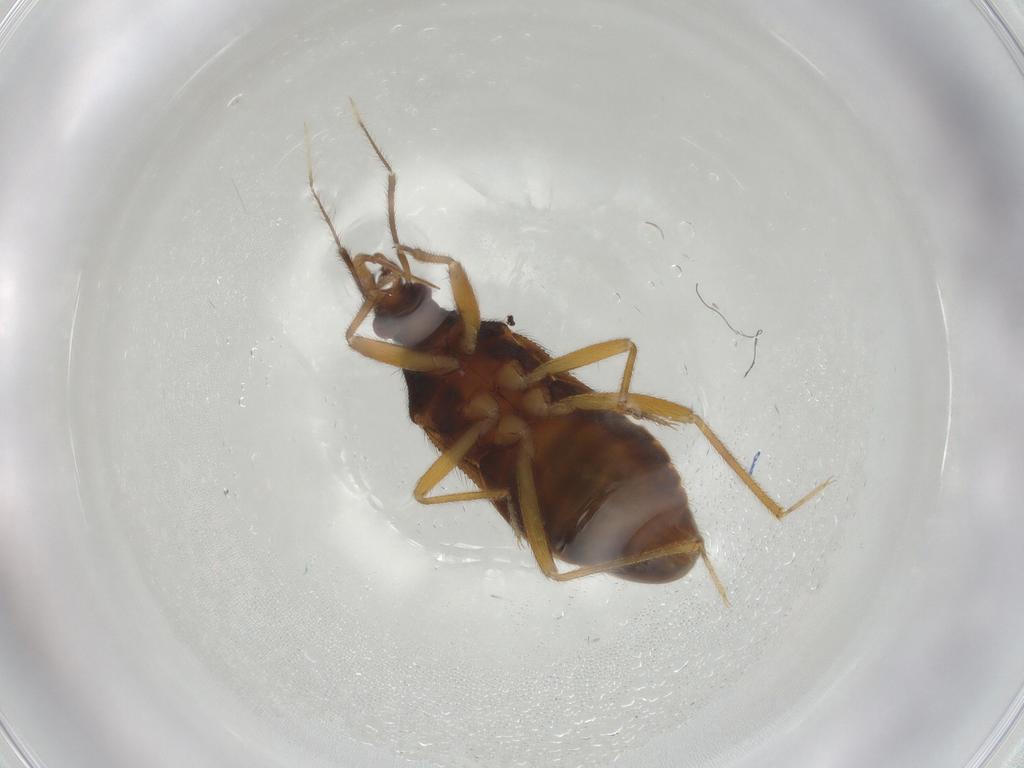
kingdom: Animalia
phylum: Arthropoda
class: Insecta
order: Hemiptera
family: Anthocoridae
